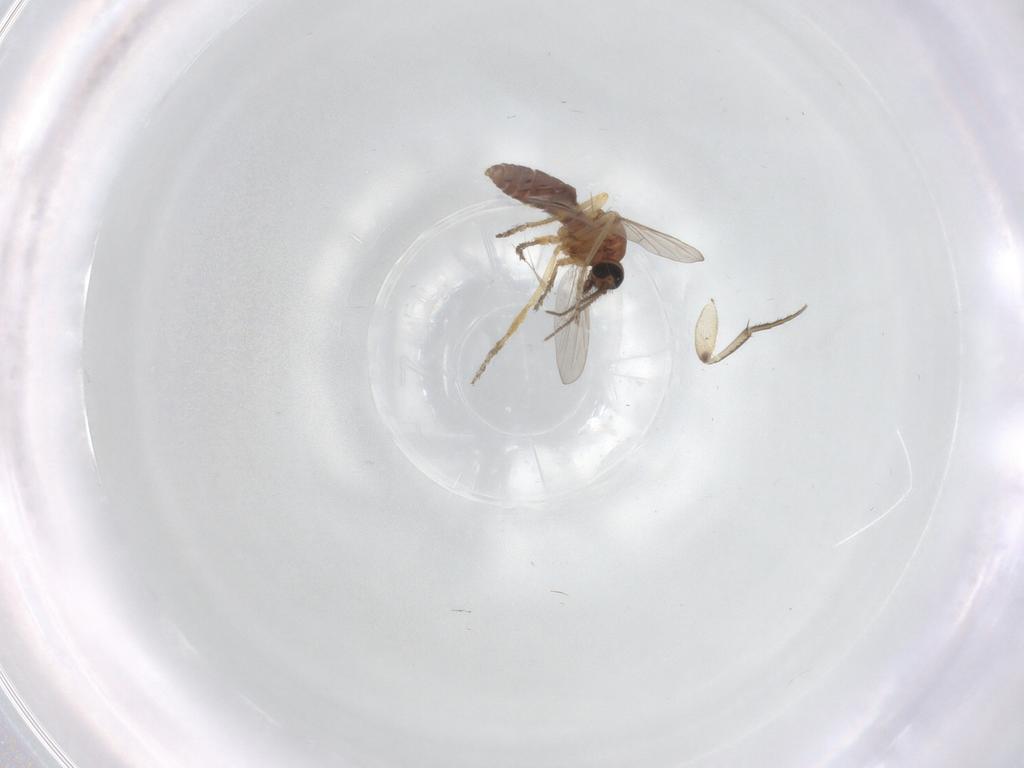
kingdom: Animalia
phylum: Arthropoda
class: Insecta
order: Diptera
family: Ceratopogonidae
